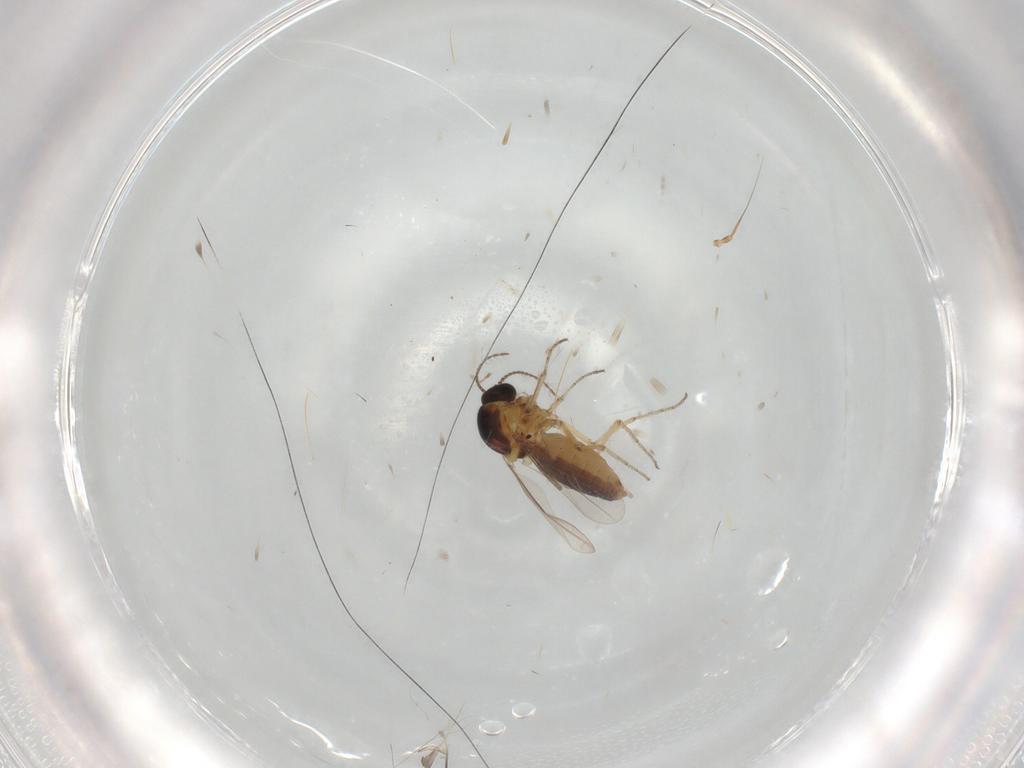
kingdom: Animalia
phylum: Arthropoda
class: Insecta
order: Diptera
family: Ceratopogonidae
